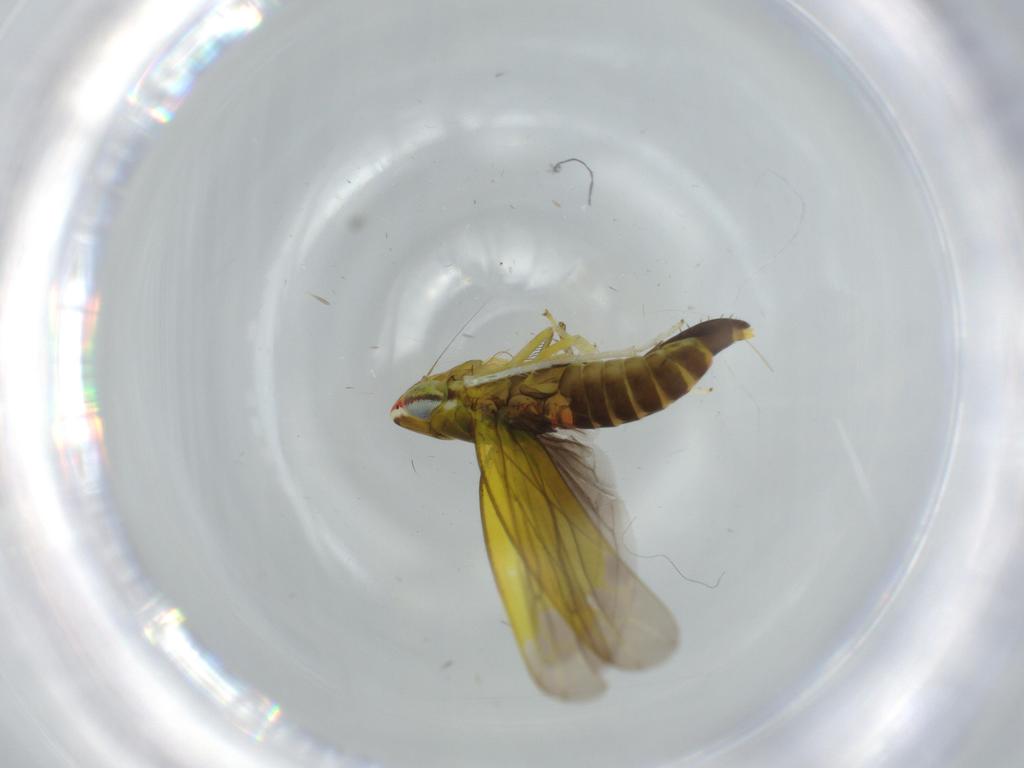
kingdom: Animalia
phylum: Arthropoda
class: Insecta
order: Hemiptera
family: Cicadellidae
